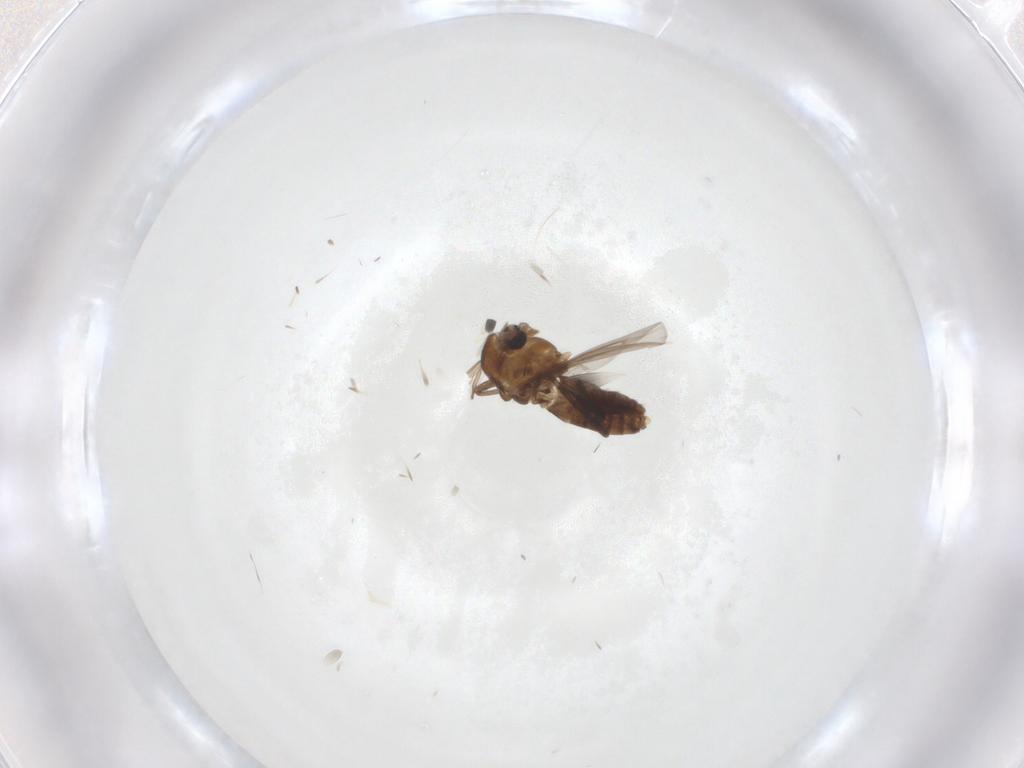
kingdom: Animalia
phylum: Arthropoda
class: Insecta
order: Diptera
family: Chironomidae
